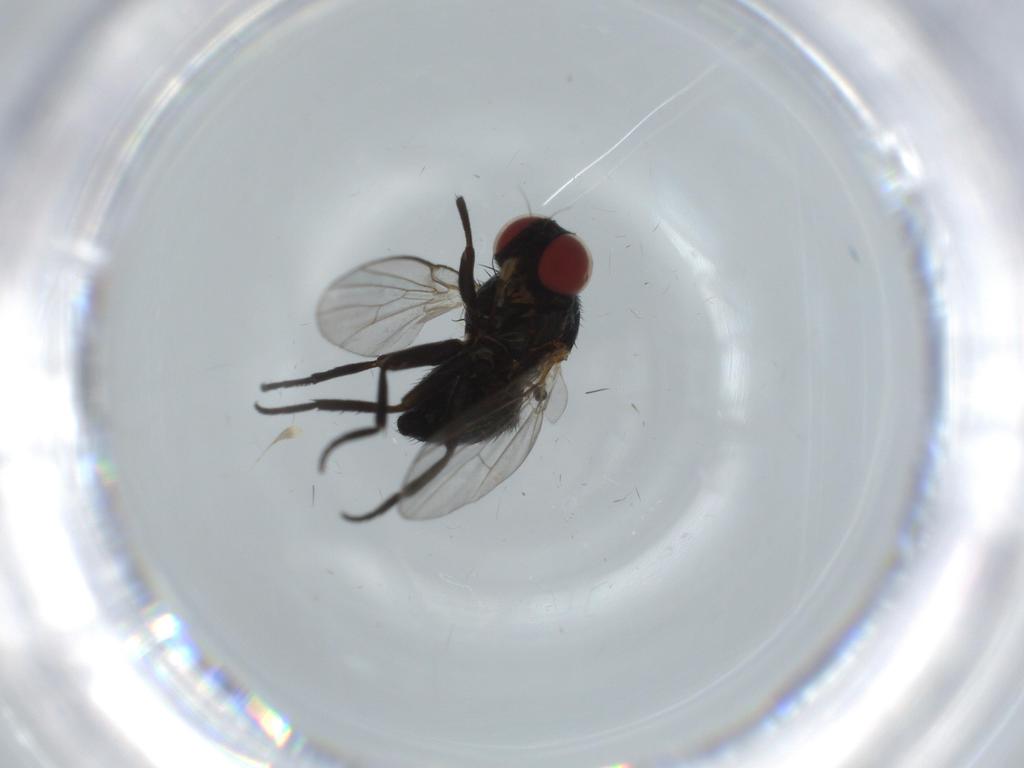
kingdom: Animalia
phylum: Arthropoda
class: Insecta
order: Diptera
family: Agromyzidae
